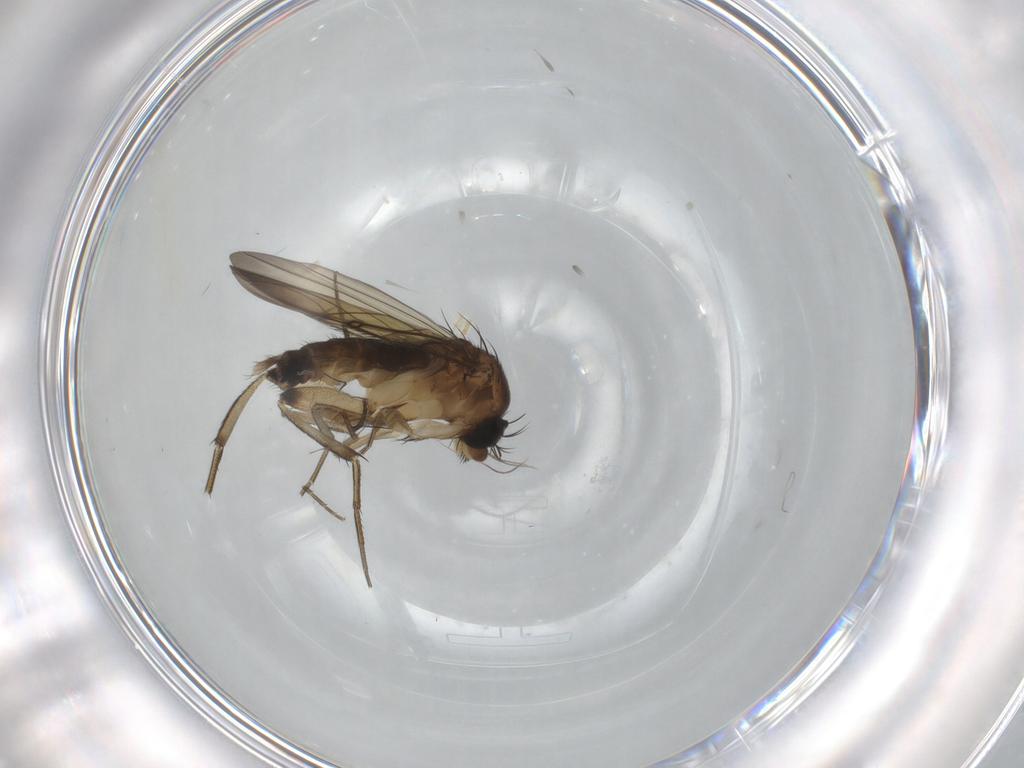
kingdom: Animalia
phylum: Arthropoda
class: Insecta
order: Diptera
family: Phoridae
